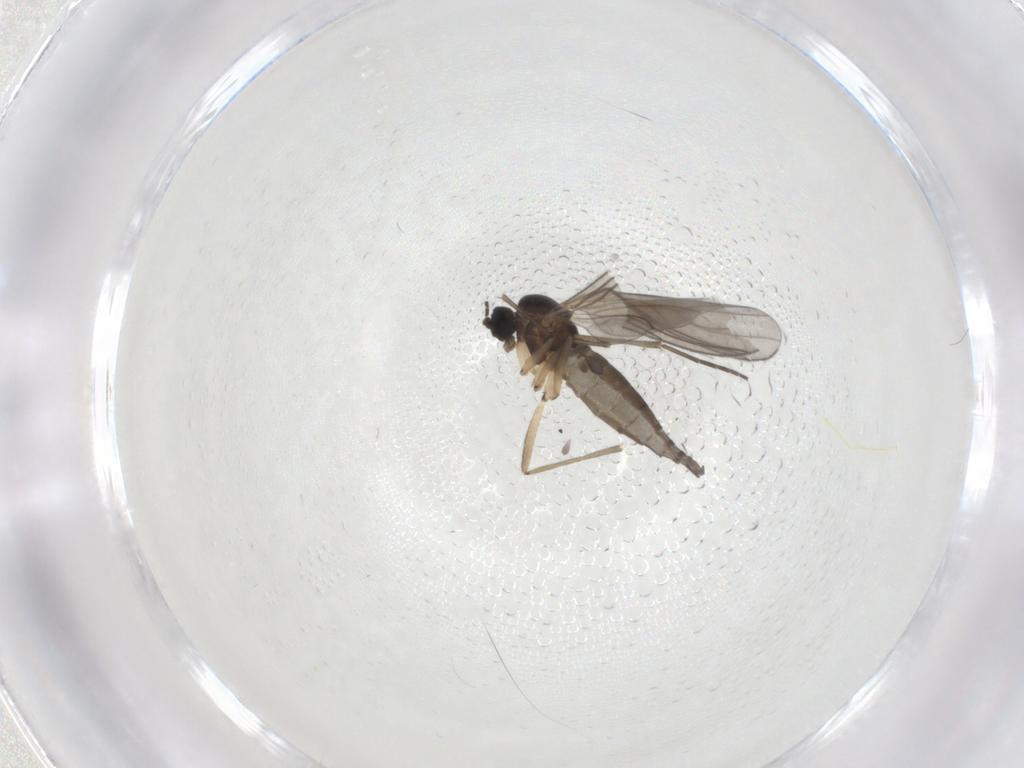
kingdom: Animalia
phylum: Arthropoda
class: Insecta
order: Diptera
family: Sciaridae
